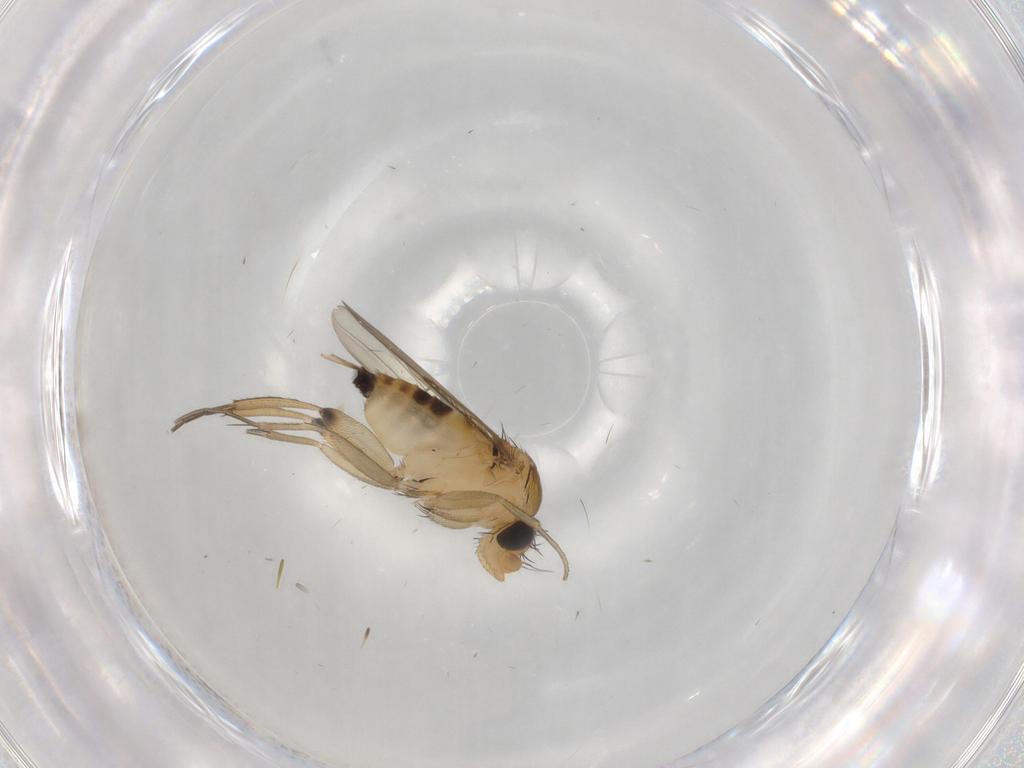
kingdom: Animalia
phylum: Arthropoda
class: Insecta
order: Diptera
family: Phoridae
